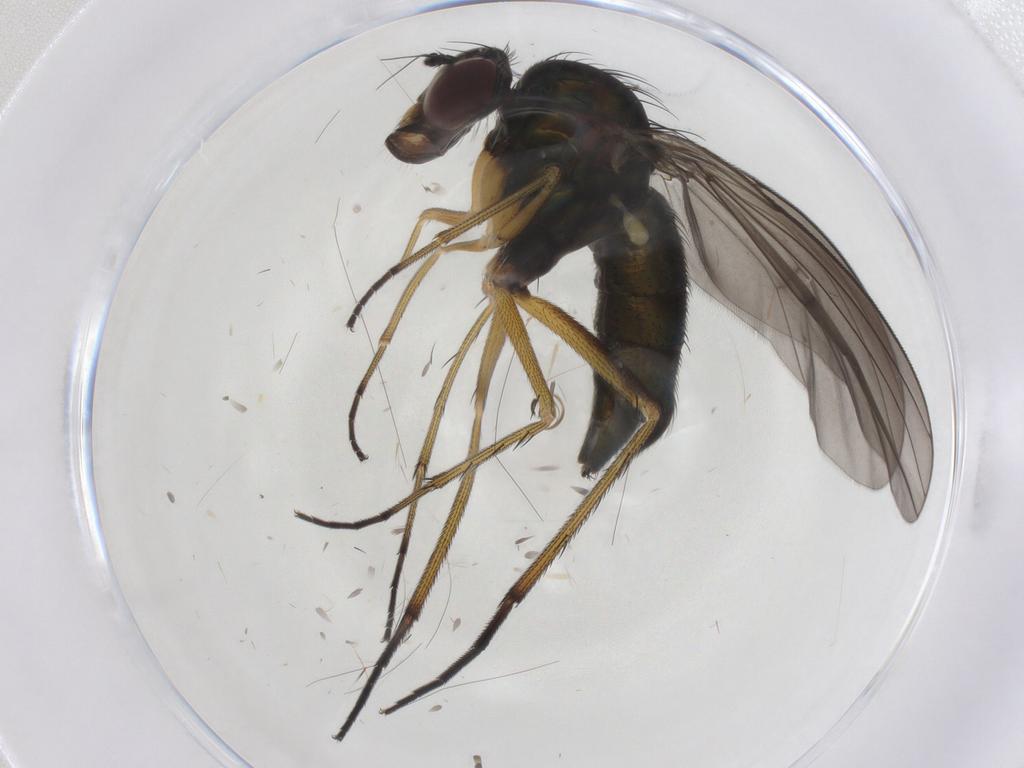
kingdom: Animalia
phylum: Arthropoda
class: Insecta
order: Diptera
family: Dolichopodidae
